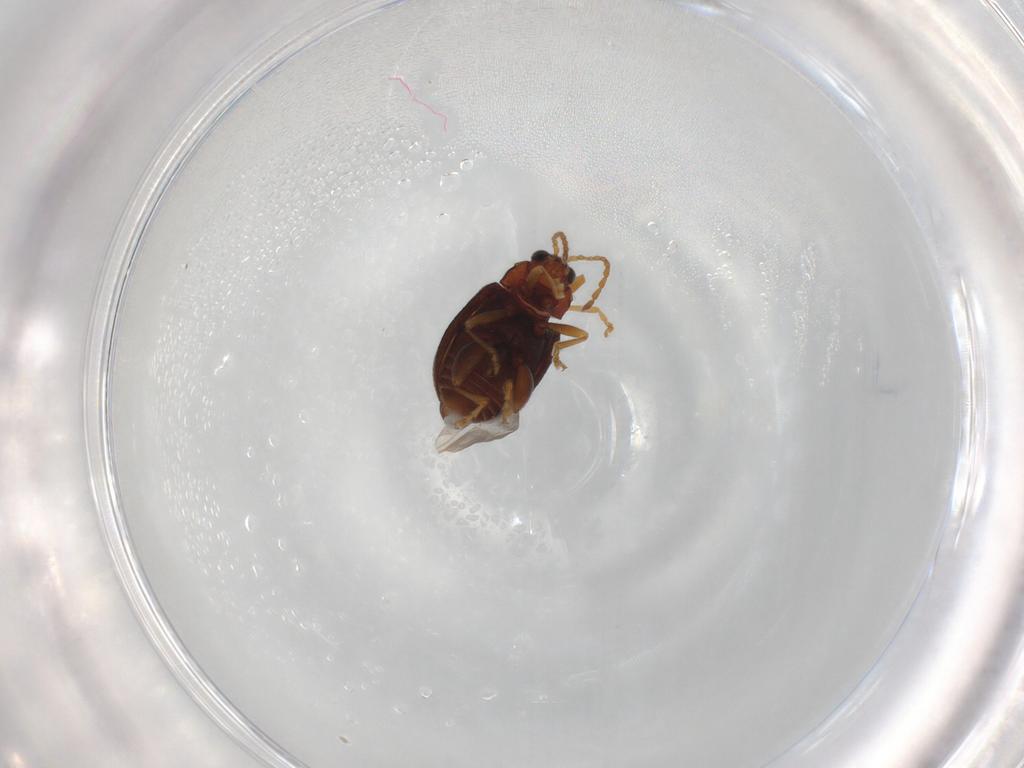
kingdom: Animalia
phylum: Arthropoda
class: Insecta
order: Coleoptera
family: Chrysomelidae
